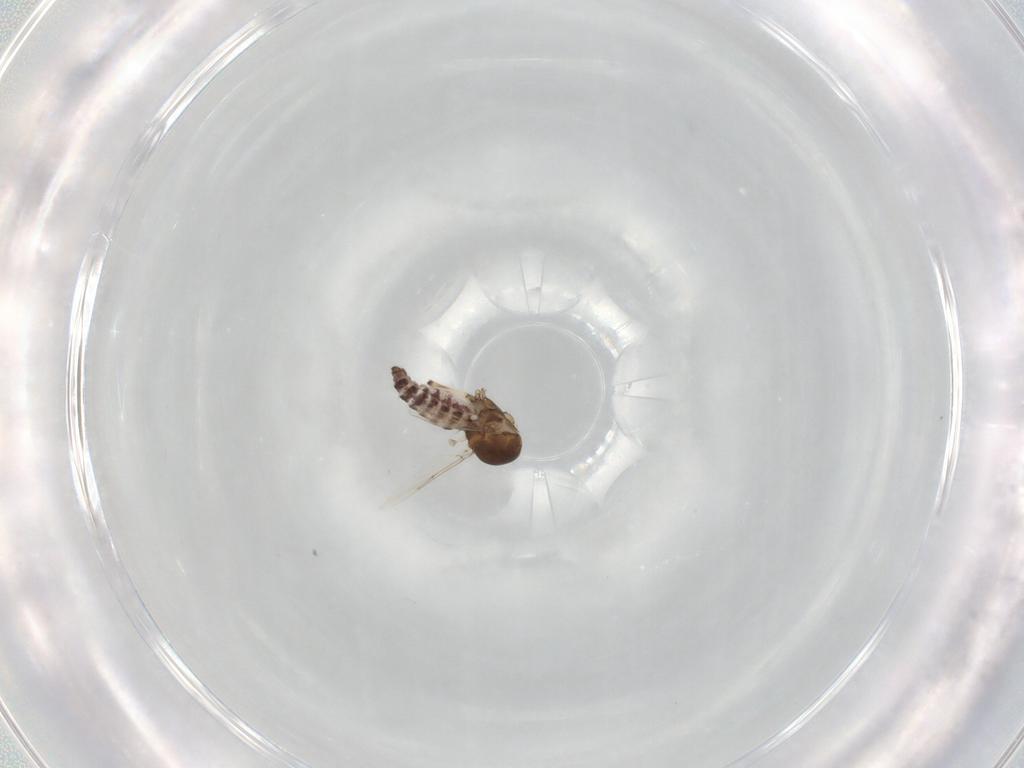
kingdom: Animalia
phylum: Arthropoda
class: Insecta
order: Diptera
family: Ceratopogonidae
